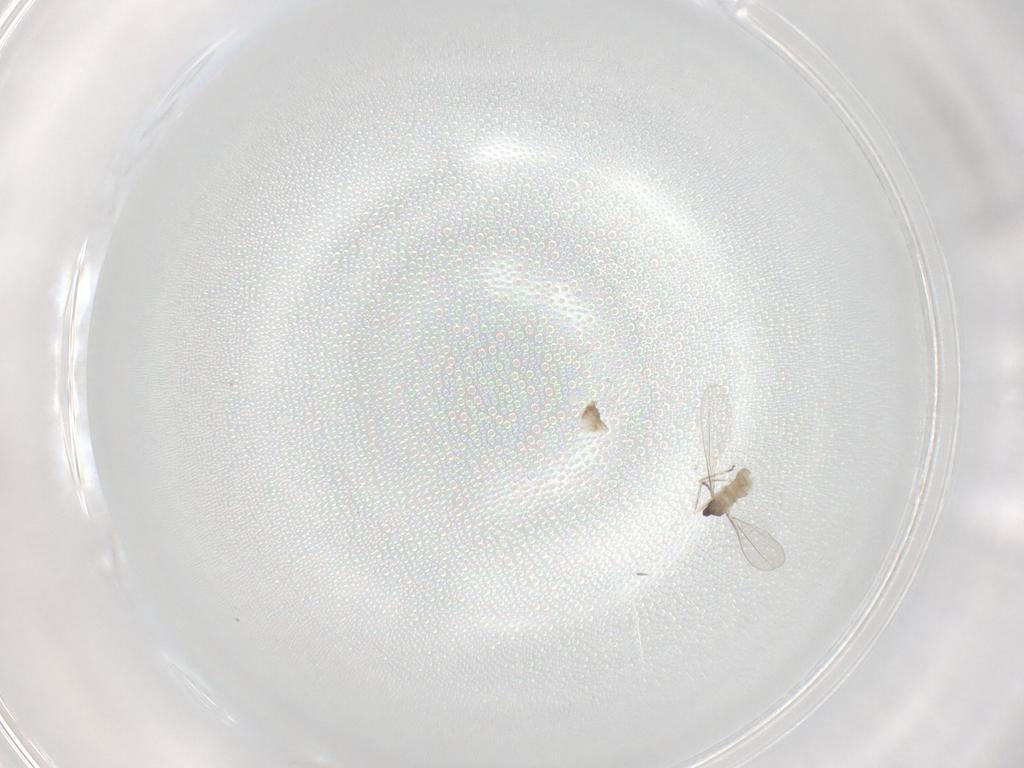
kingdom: Animalia
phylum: Arthropoda
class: Insecta
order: Diptera
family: Cecidomyiidae
